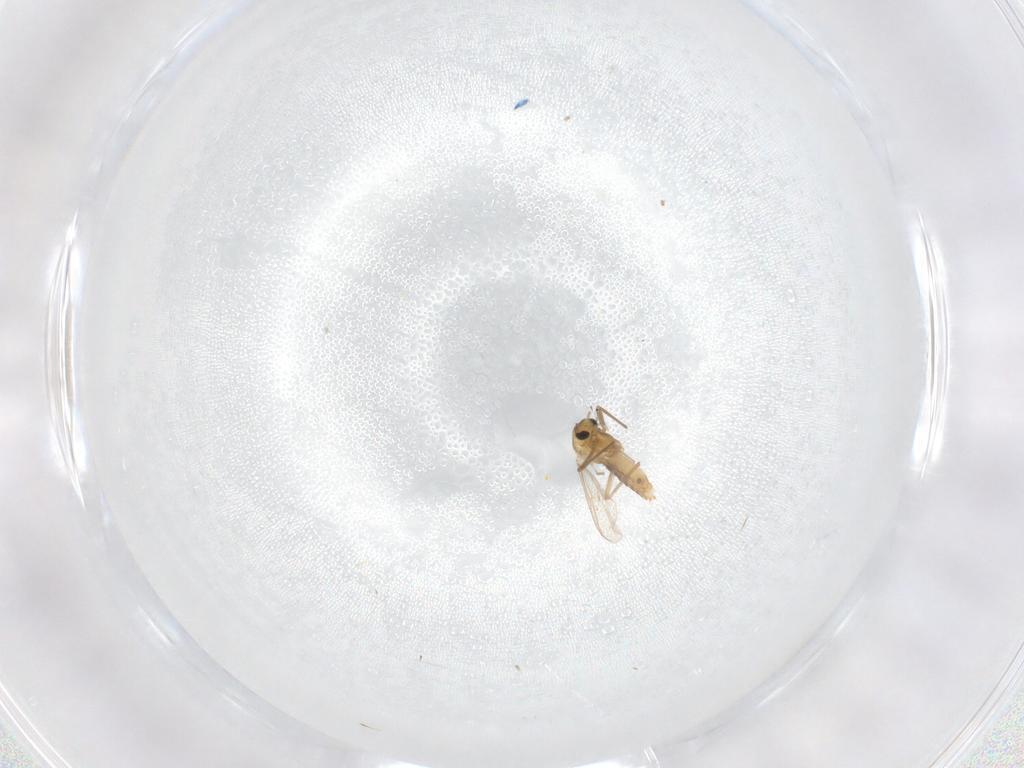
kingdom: Animalia
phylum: Arthropoda
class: Insecta
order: Diptera
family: Chironomidae
